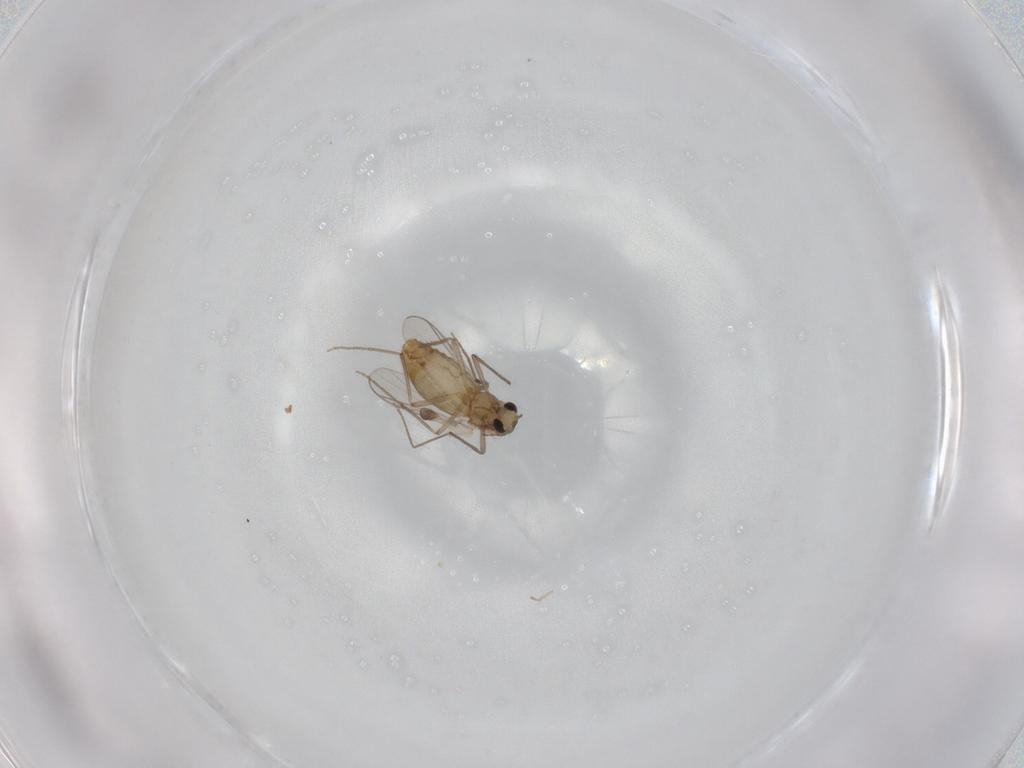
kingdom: Animalia
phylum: Arthropoda
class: Insecta
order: Diptera
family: Chironomidae
